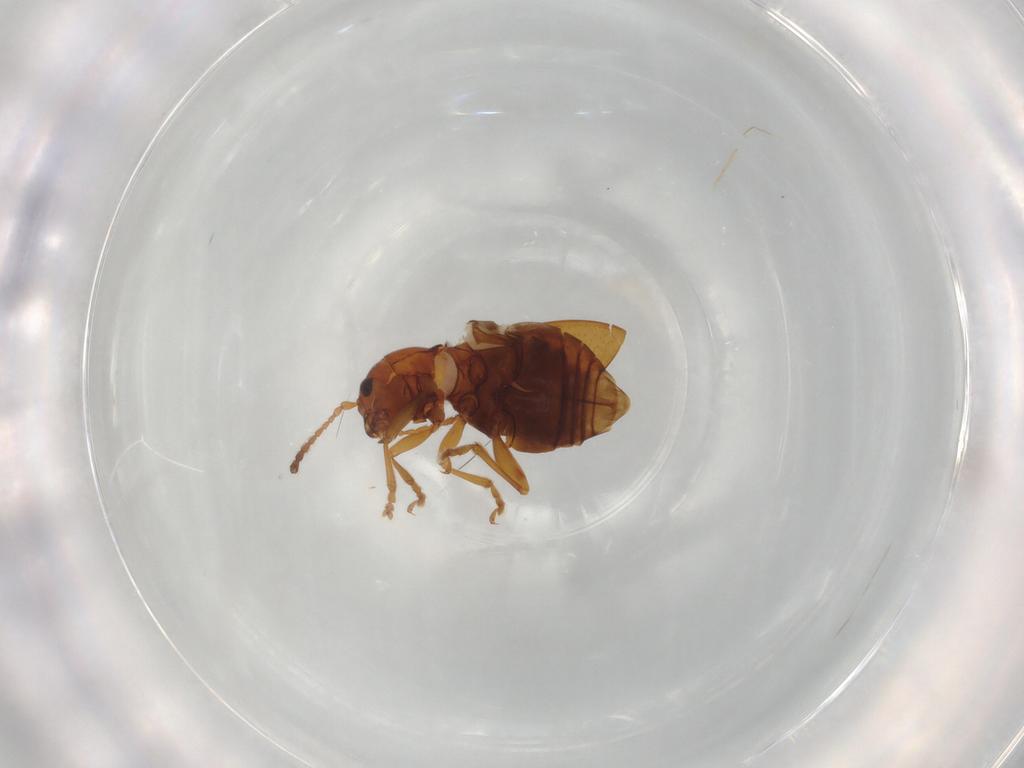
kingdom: Animalia
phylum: Arthropoda
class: Insecta
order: Coleoptera
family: Chrysomelidae
